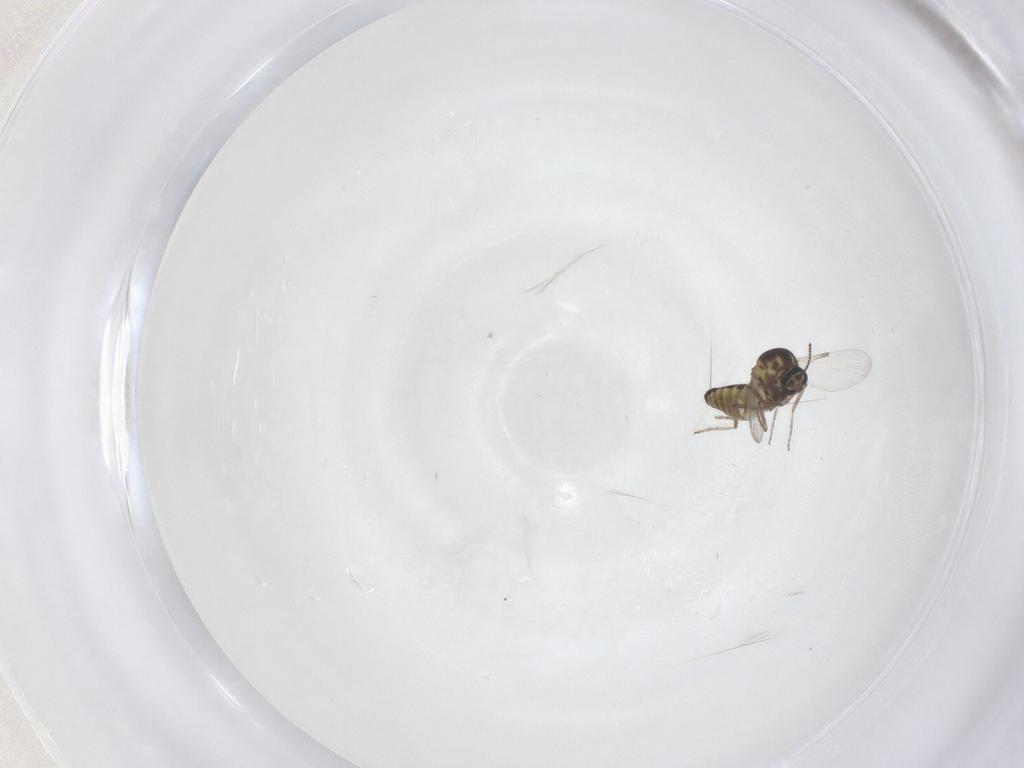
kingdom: Animalia
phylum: Arthropoda
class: Insecta
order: Diptera
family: Ceratopogonidae
